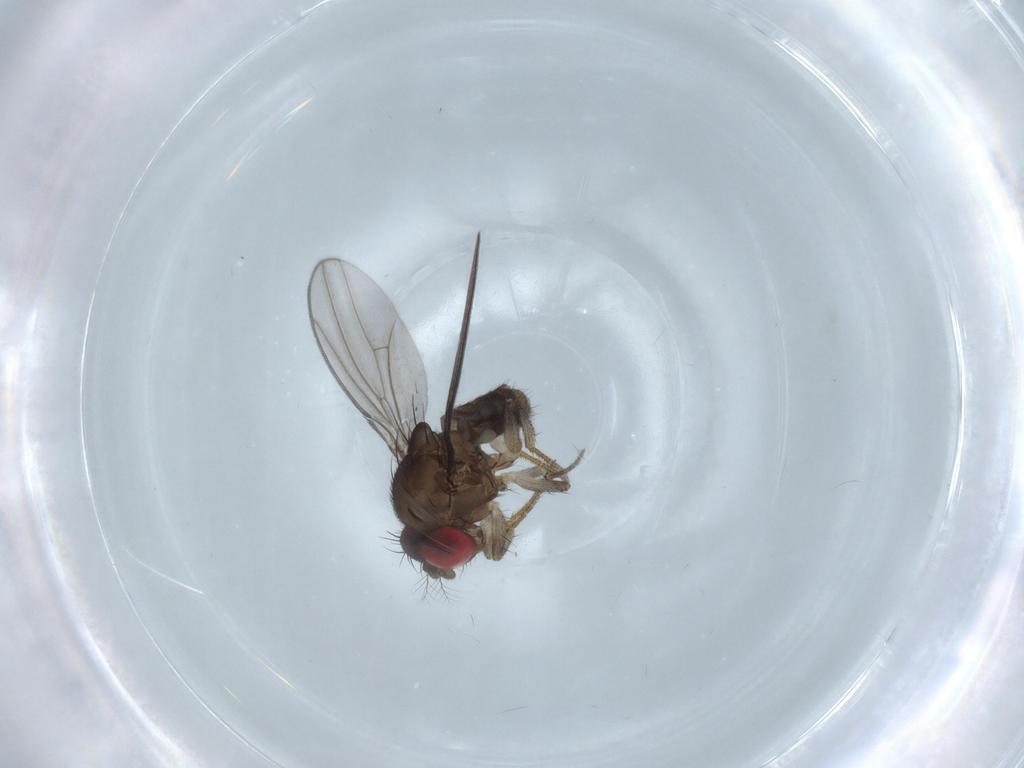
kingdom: Animalia
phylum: Arthropoda
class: Insecta
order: Diptera
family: Drosophilidae
